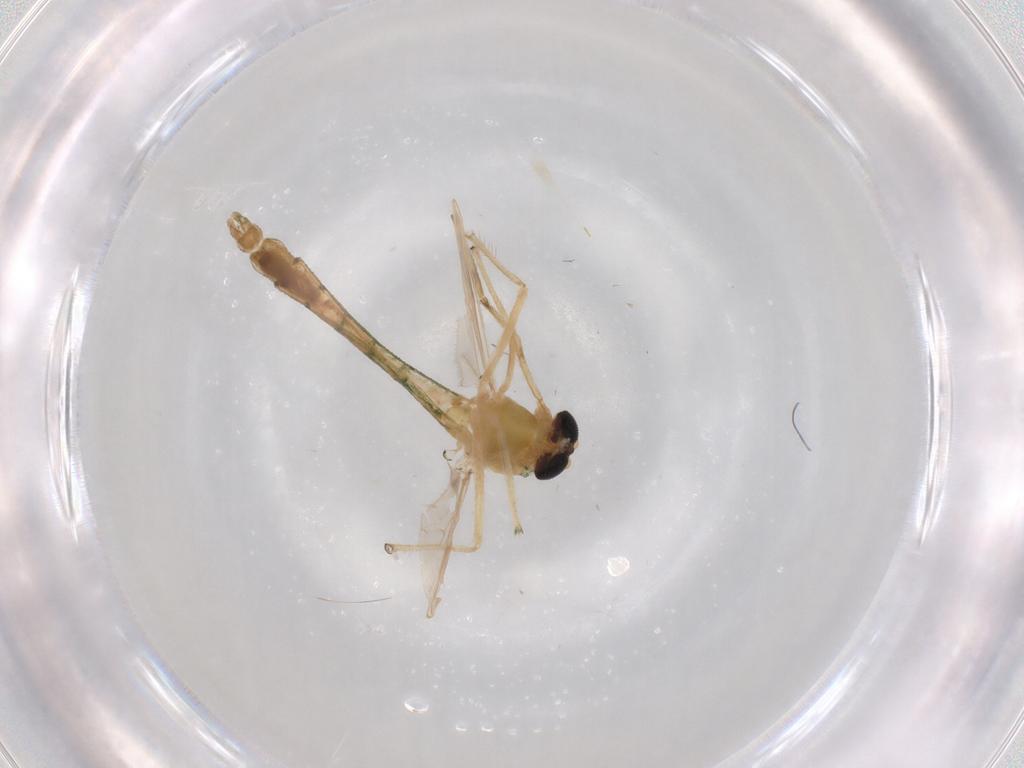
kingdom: Animalia
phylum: Arthropoda
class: Insecta
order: Diptera
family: Chironomidae
